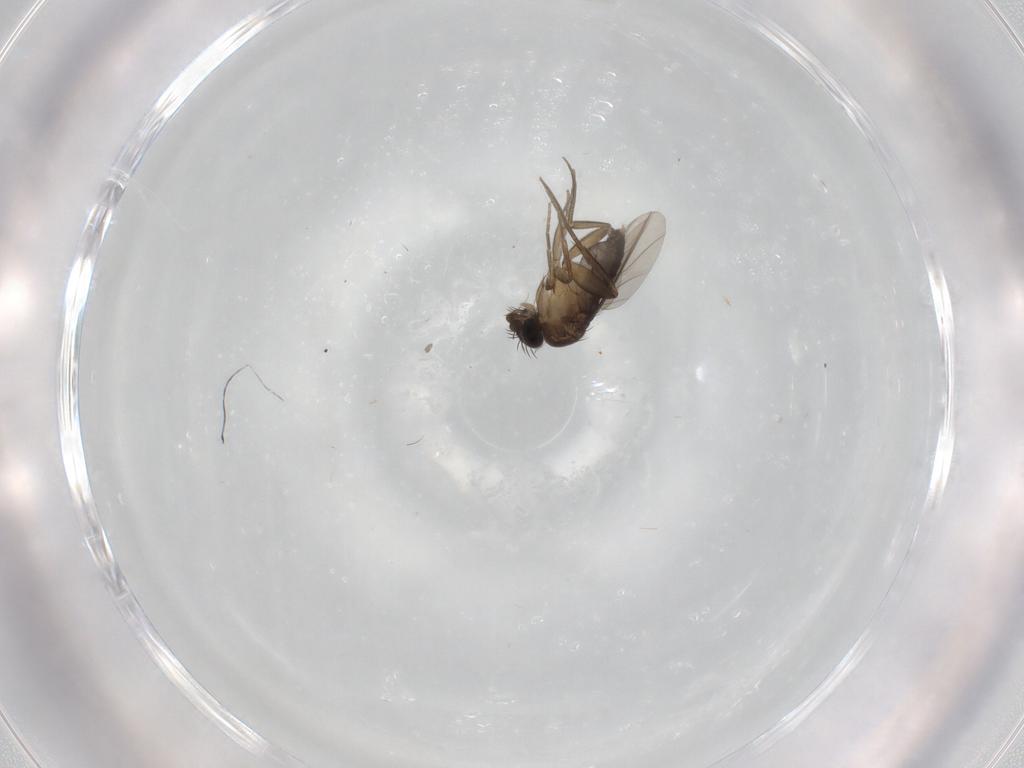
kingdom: Animalia
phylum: Arthropoda
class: Insecta
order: Diptera
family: Phoridae
